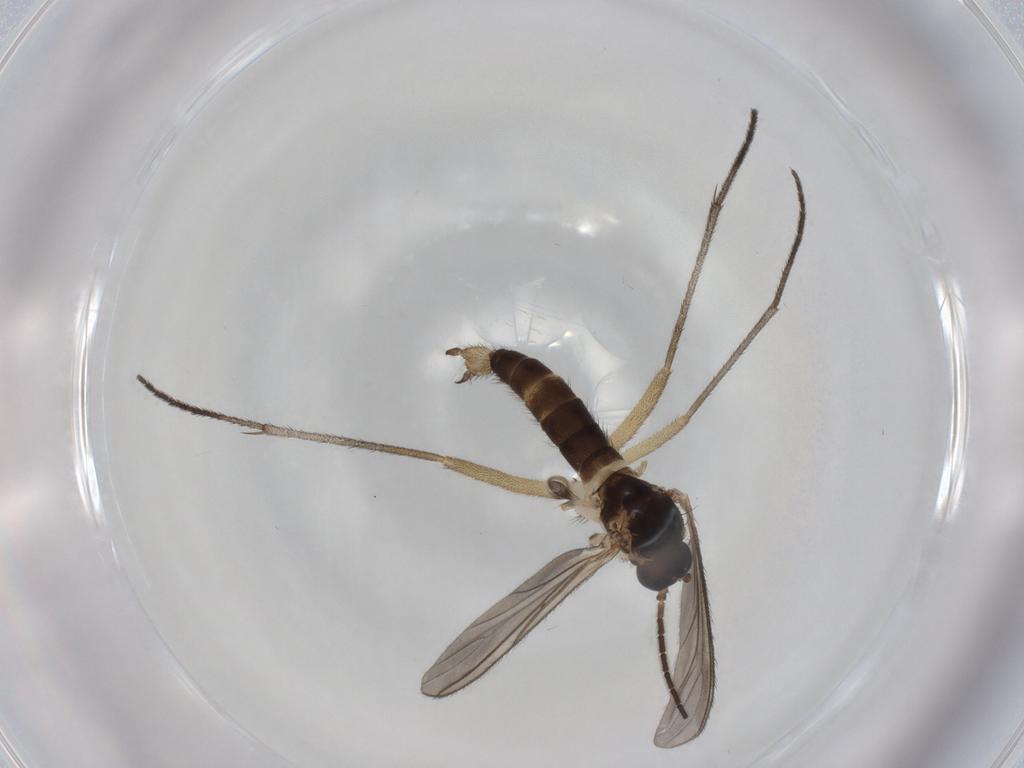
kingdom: Animalia
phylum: Arthropoda
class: Insecta
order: Diptera
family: Sciaridae
